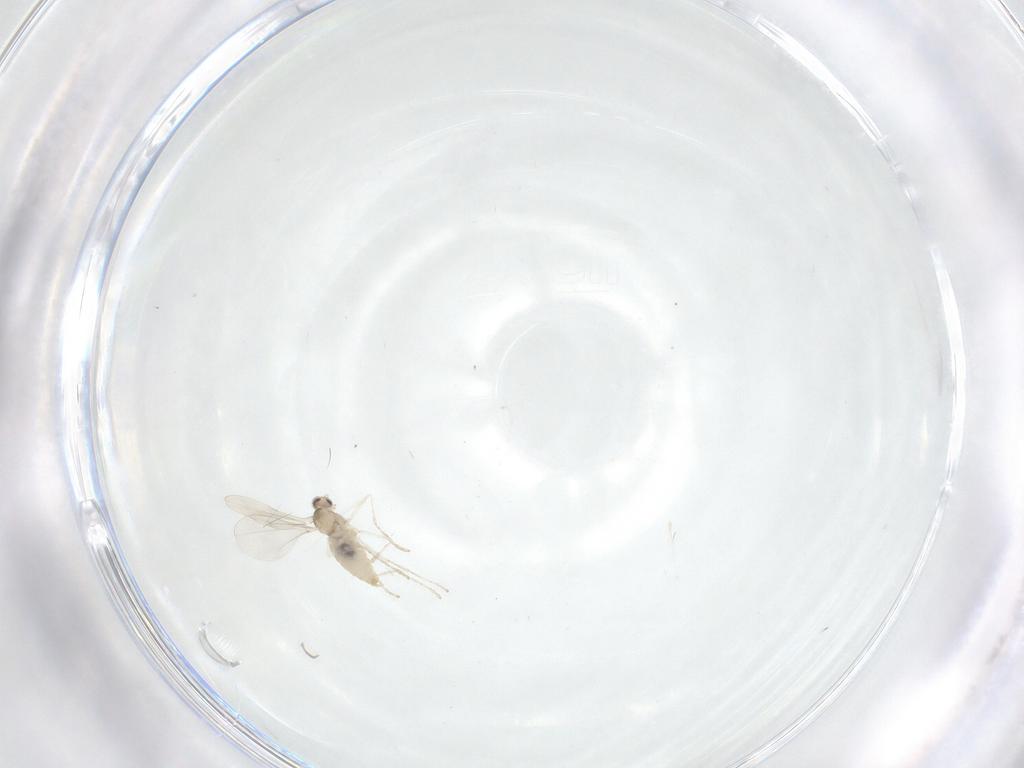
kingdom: Animalia
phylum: Arthropoda
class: Insecta
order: Diptera
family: Cecidomyiidae
